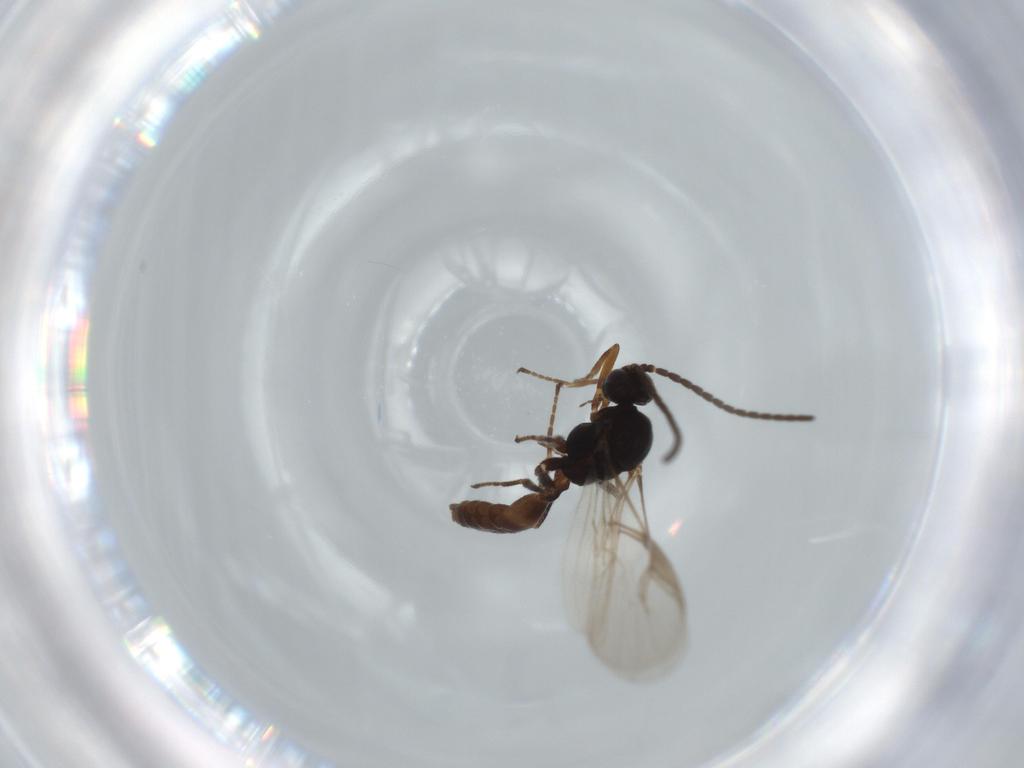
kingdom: Animalia
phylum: Arthropoda
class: Insecta
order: Hymenoptera
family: Braconidae
